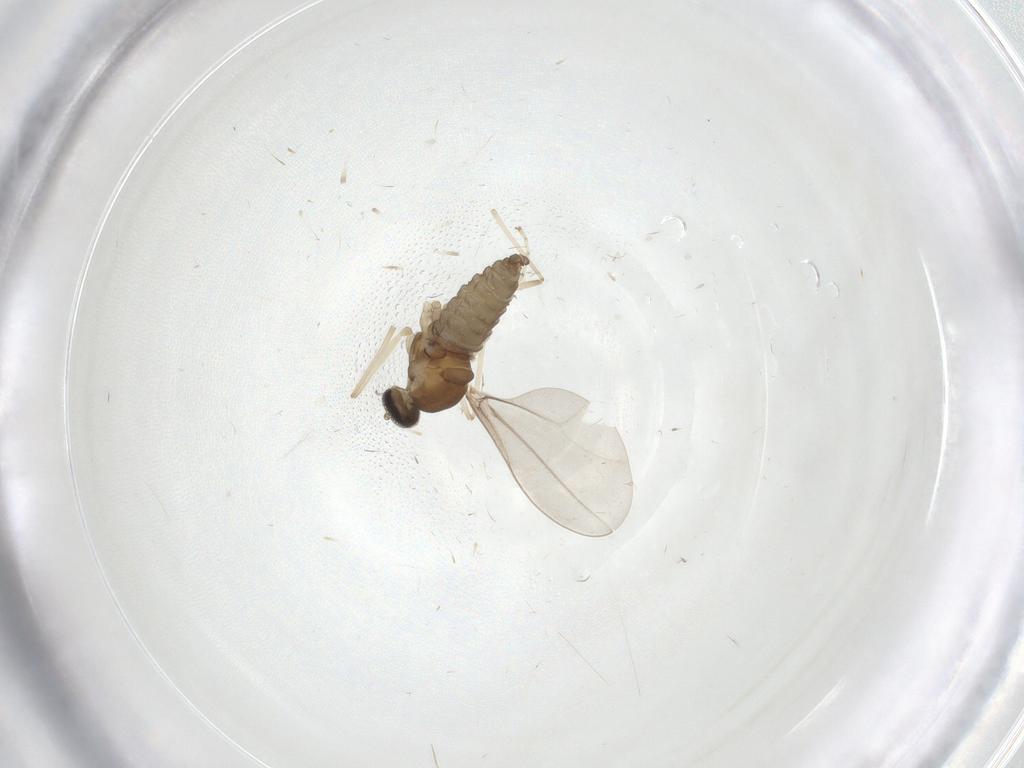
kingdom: Animalia
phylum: Arthropoda
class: Insecta
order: Diptera
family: Cecidomyiidae
